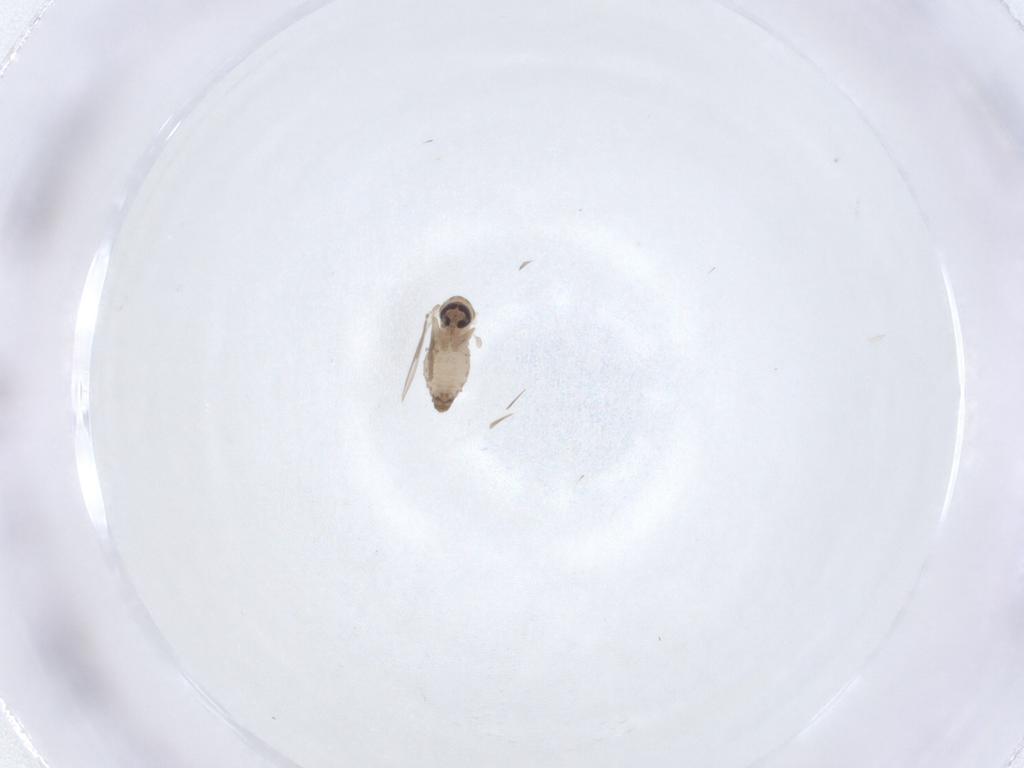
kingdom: Animalia
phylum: Arthropoda
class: Insecta
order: Diptera
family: Psychodidae
